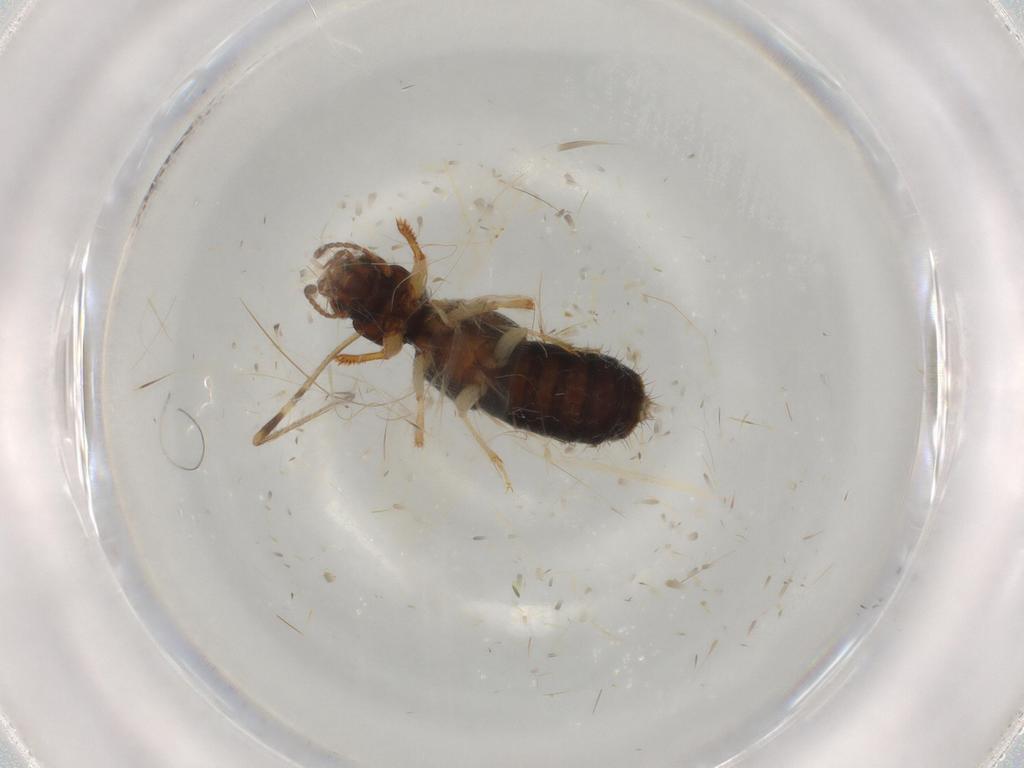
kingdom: Animalia
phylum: Arthropoda
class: Insecta
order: Coleoptera
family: Staphylinidae
